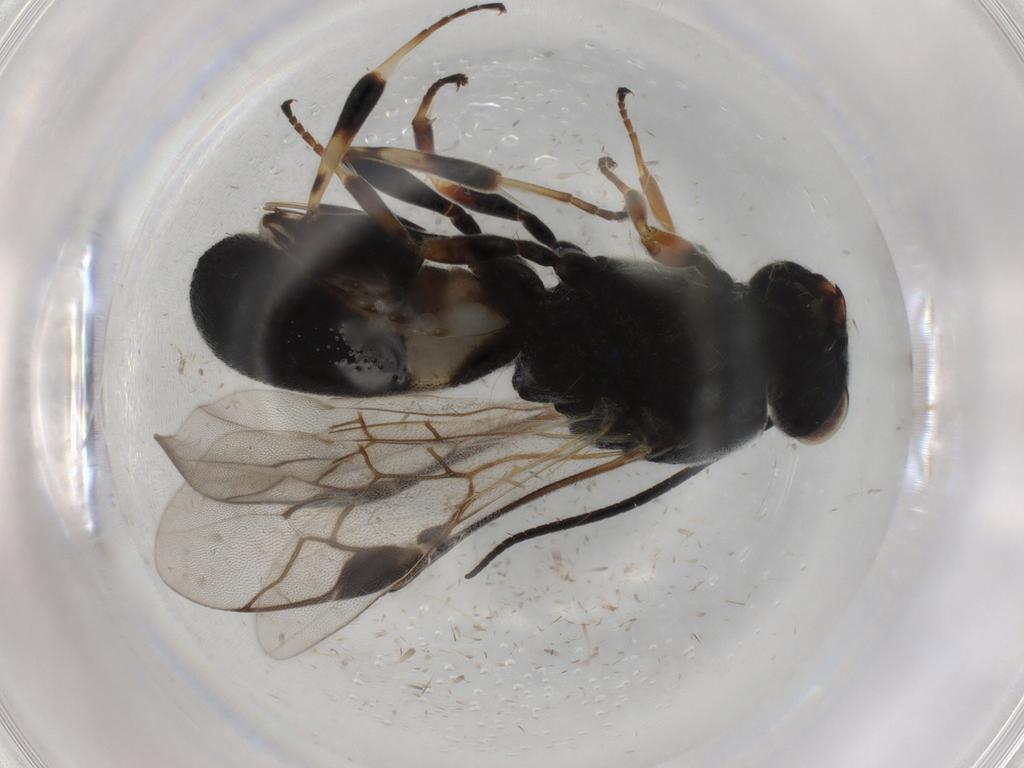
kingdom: Animalia
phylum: Arthropoda
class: Insecta
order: Hymenoptera
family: Braconidae
